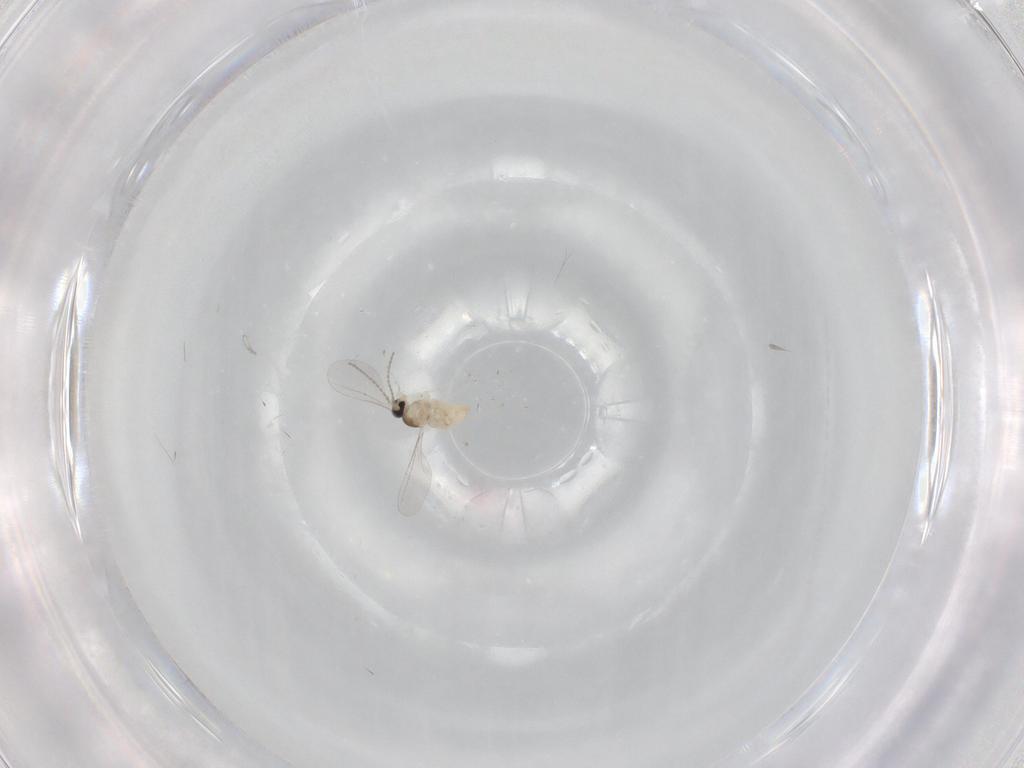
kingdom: Animalia
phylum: Arthropoda
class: Insecta
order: Diptera
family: Cecidomyiidae
